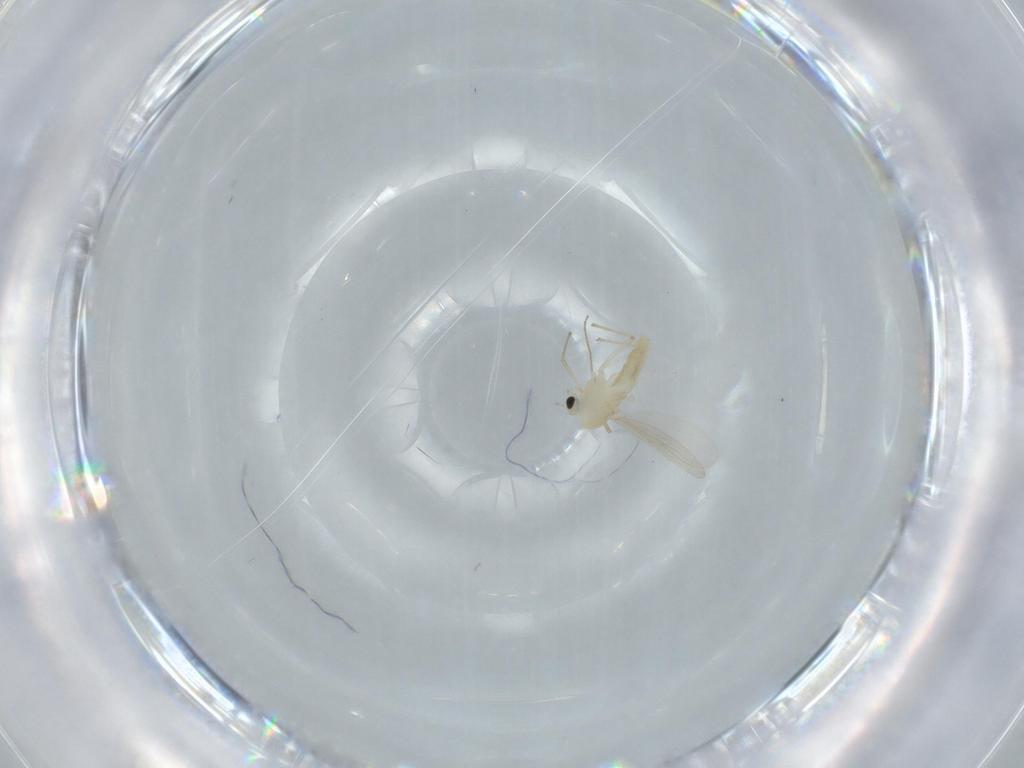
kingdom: Animalia
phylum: Arthropoda
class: Insecta
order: Diptera
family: Chironomidae
